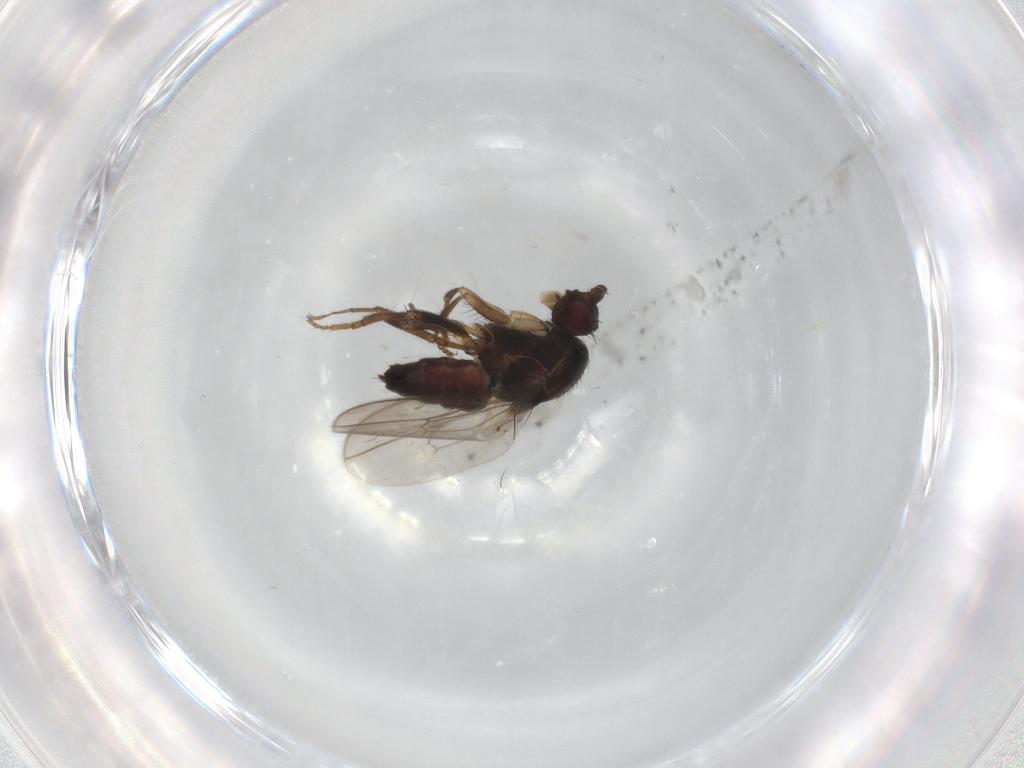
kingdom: Animalia
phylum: Arthropoda
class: Insecta
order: Diptera
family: Sphaeroceridae
